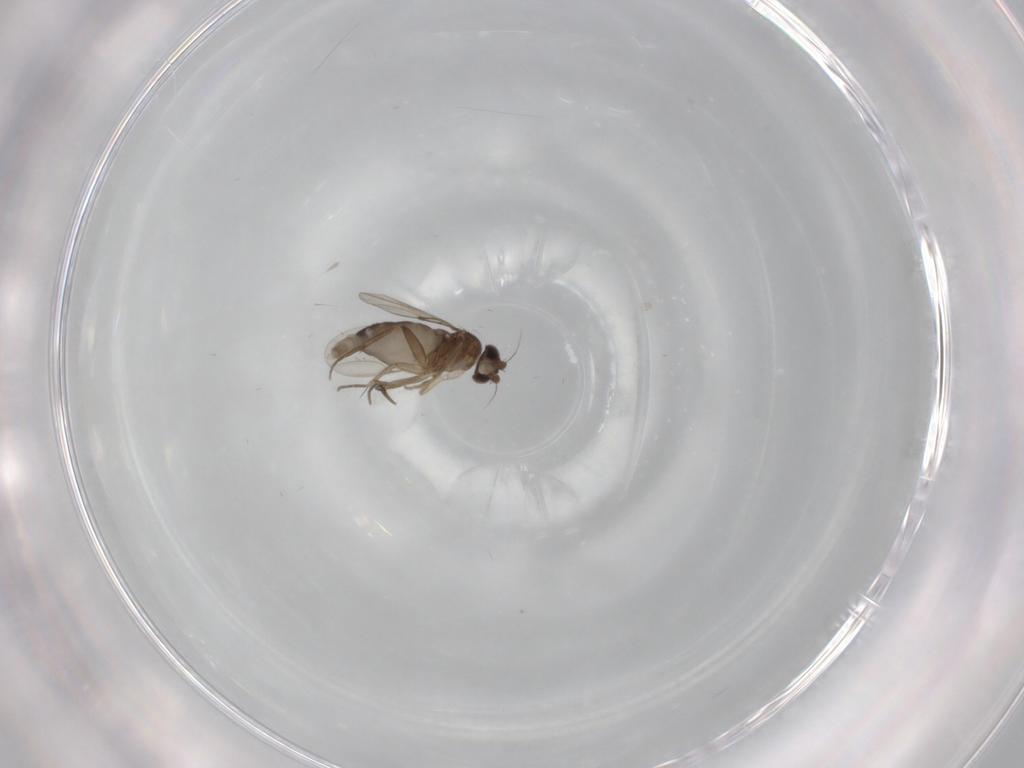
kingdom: Animalia
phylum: Arthropoda
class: Insecta
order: Diptera
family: Phoridae
